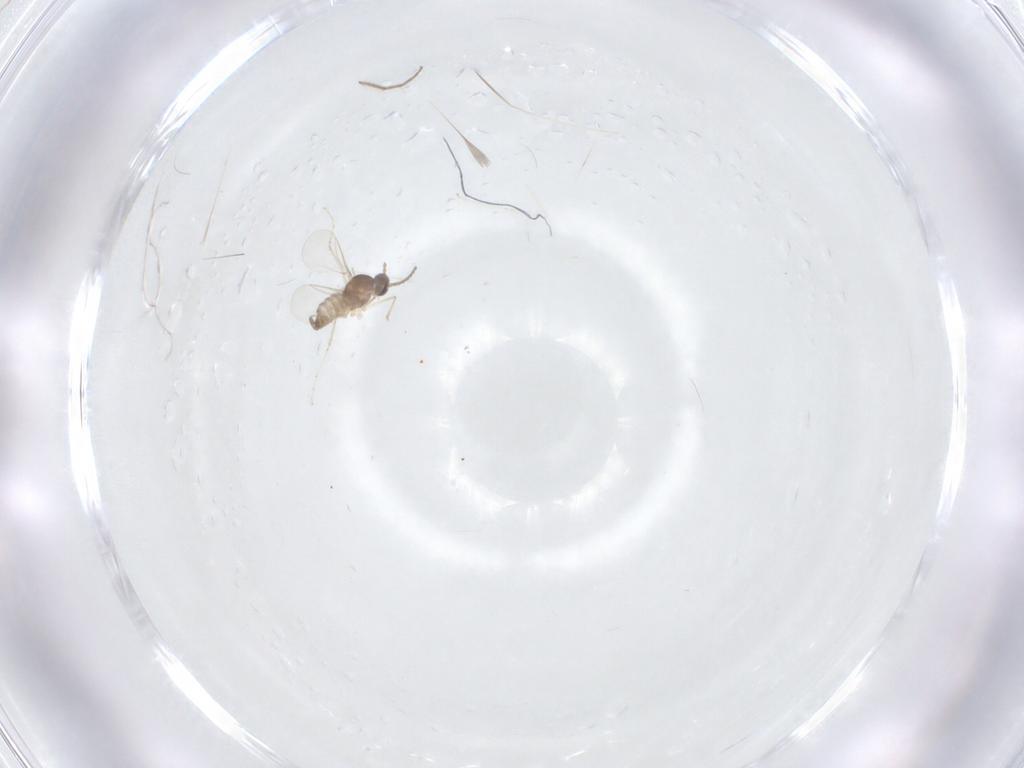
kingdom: Animalia
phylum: Arthropoda
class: Insecta
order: Diptera
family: Cecidomyiidae
